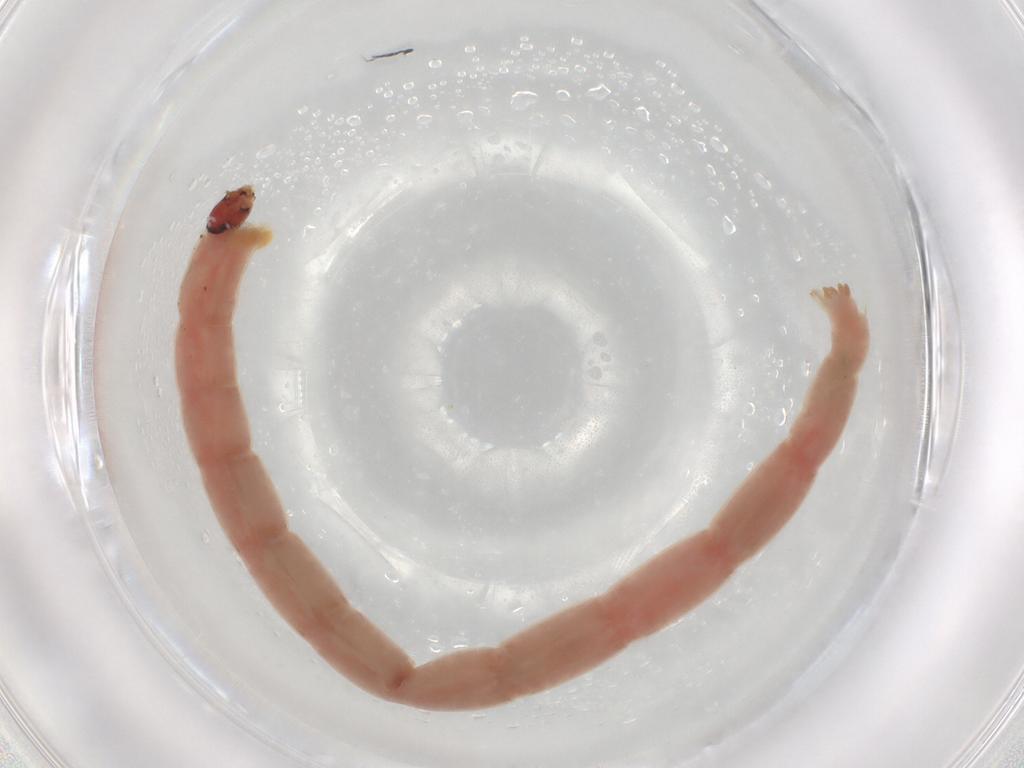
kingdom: Animalia
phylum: Arthropoda
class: Insecta
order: Diptera
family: Chironomidae
